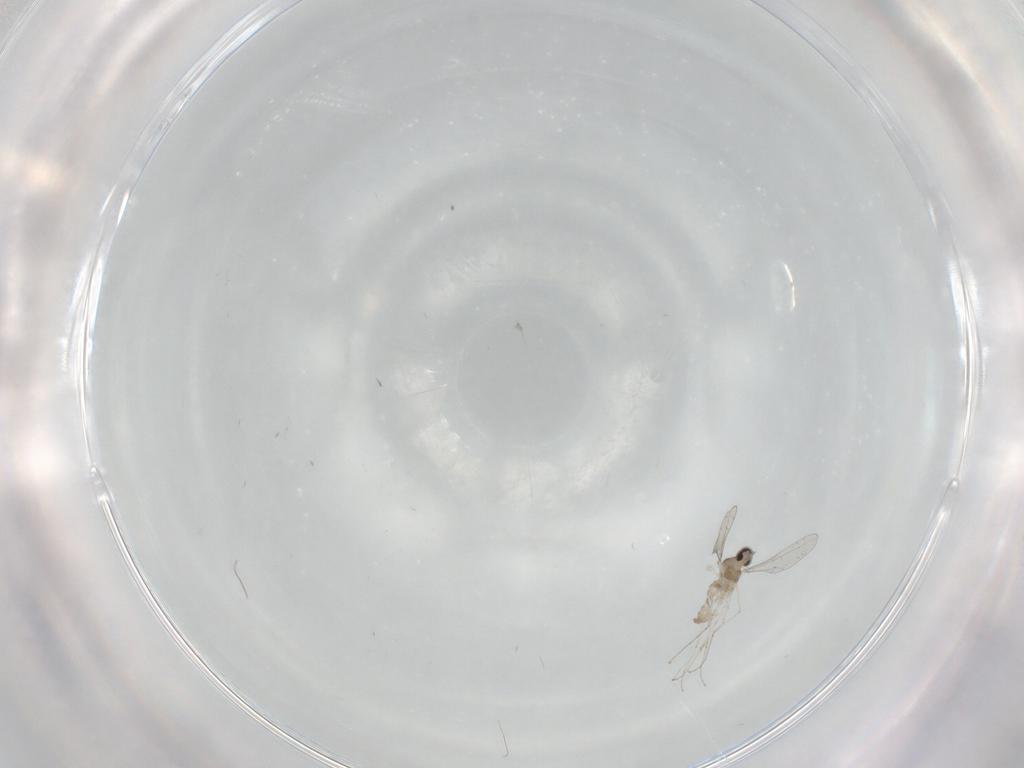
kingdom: Animalia
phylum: Arthropoda
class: Insecta
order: Diptera
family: Cecidomyiidae
